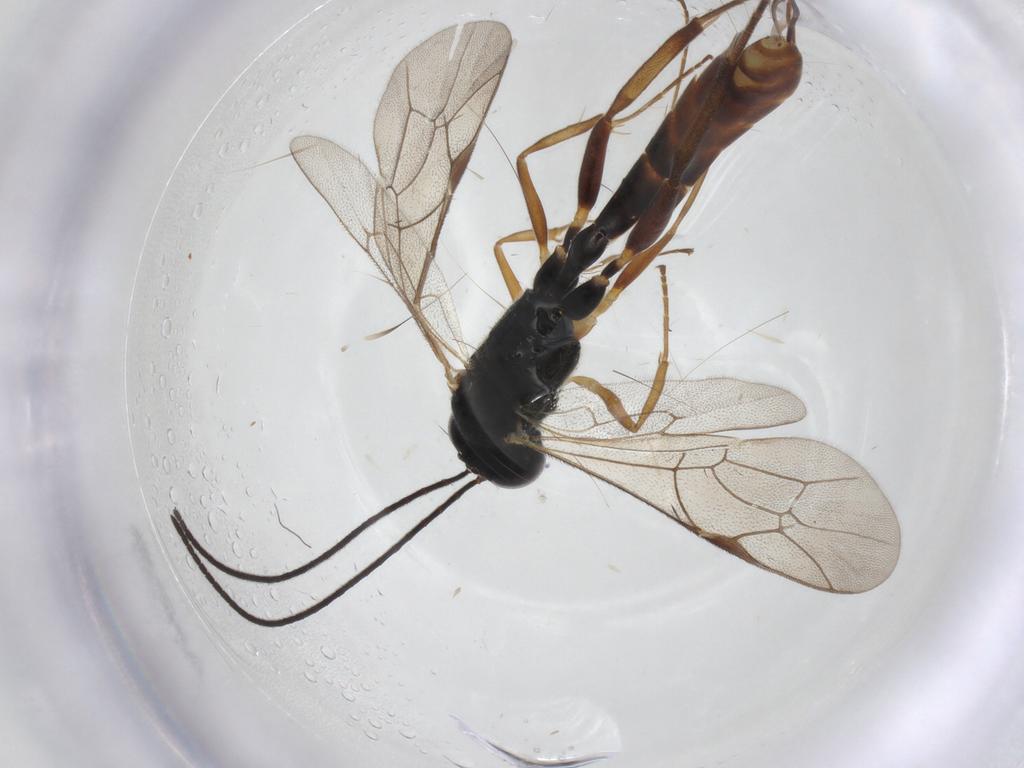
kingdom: Animalia
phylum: Arthropoda
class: Insecta
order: Hymenoptera
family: Ichneumonidae
